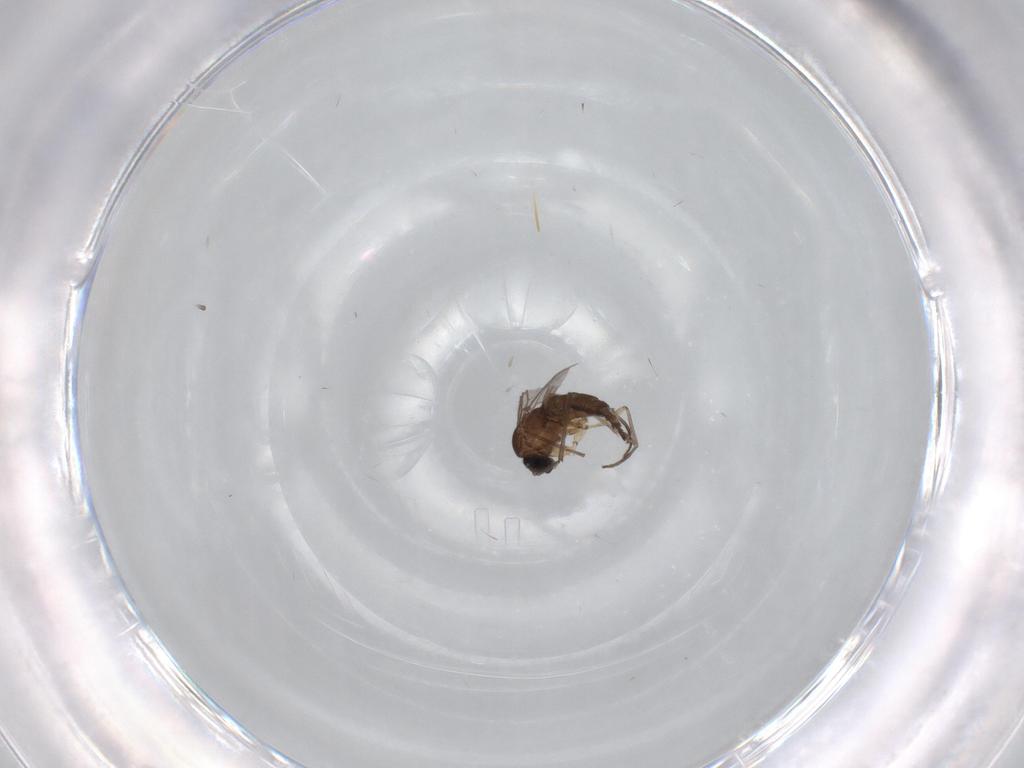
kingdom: Animalia
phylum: Arthropoda
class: Insecta
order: Diptera
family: Sciaridae
